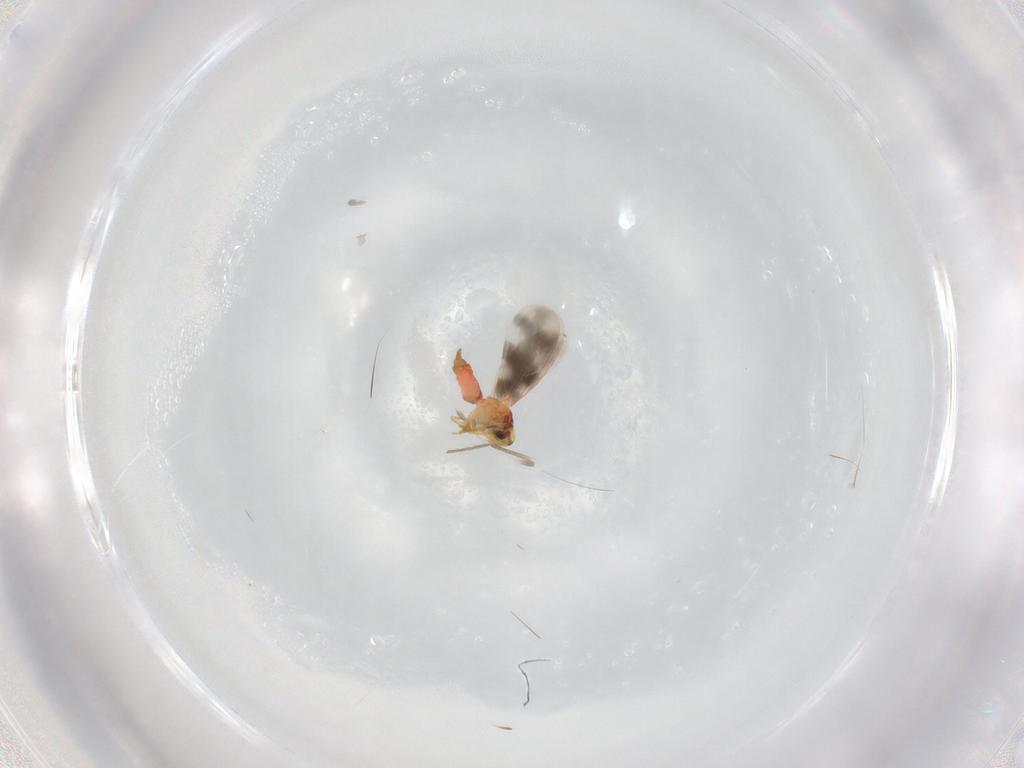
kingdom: Animalia
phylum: Arthropoda
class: Insecta
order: Hemiptera
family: Aleyrodidae
